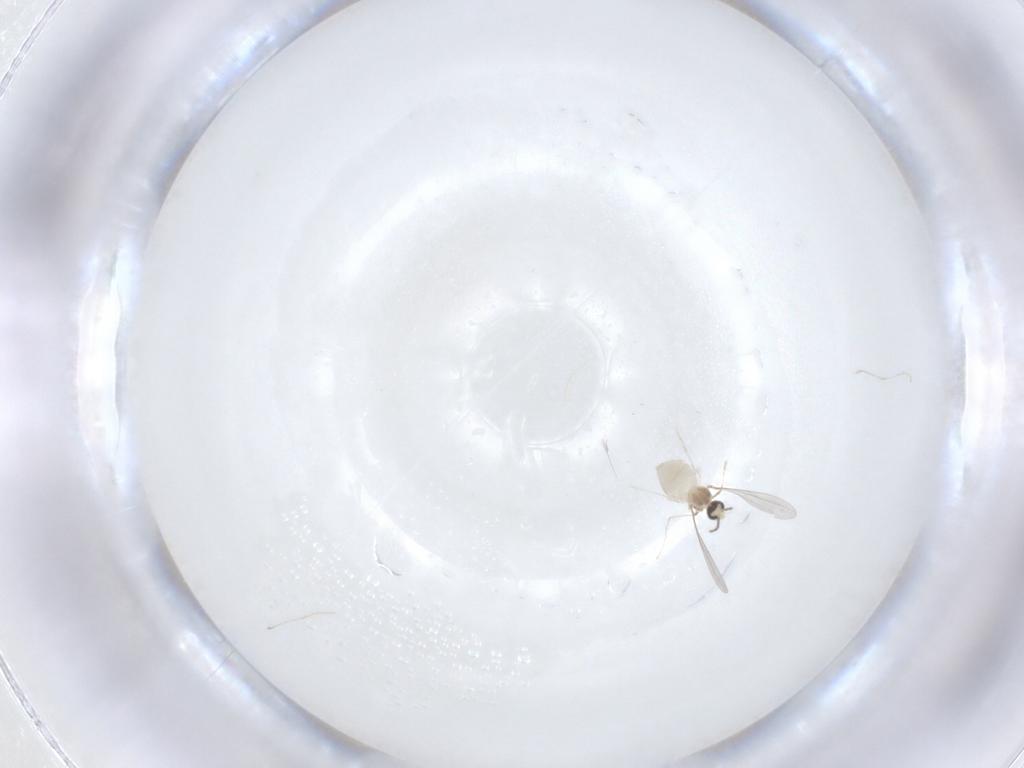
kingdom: Animalia
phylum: Arthropoda
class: Insecta
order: Diptera
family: Cecidomyiidae
